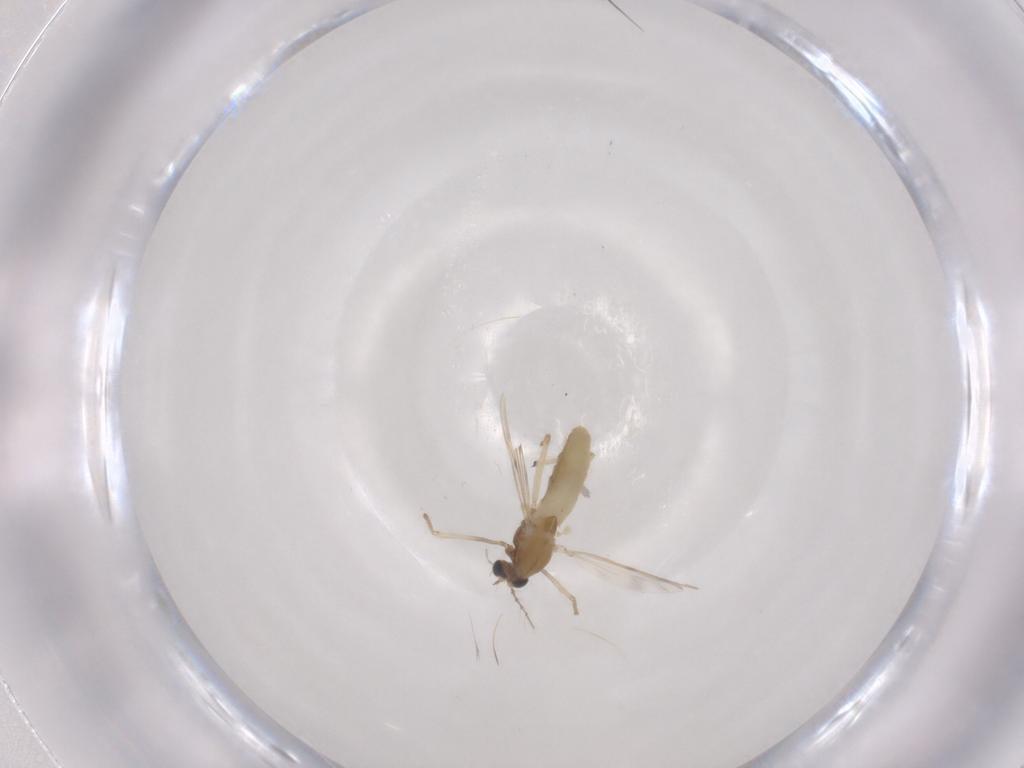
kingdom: Animalia
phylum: Arthropoda
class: Insecta
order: Diptera
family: Chironomidae
